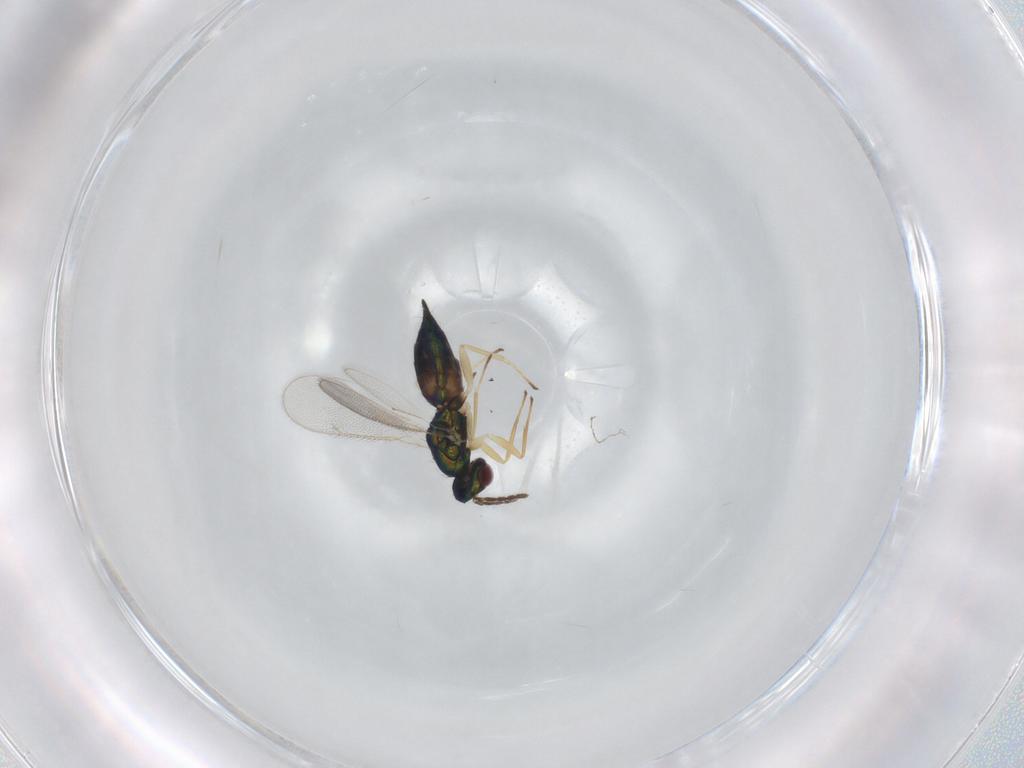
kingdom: Animalia
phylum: Arthropoda
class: Insecta
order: Hymenoptera
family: Eulophidae
